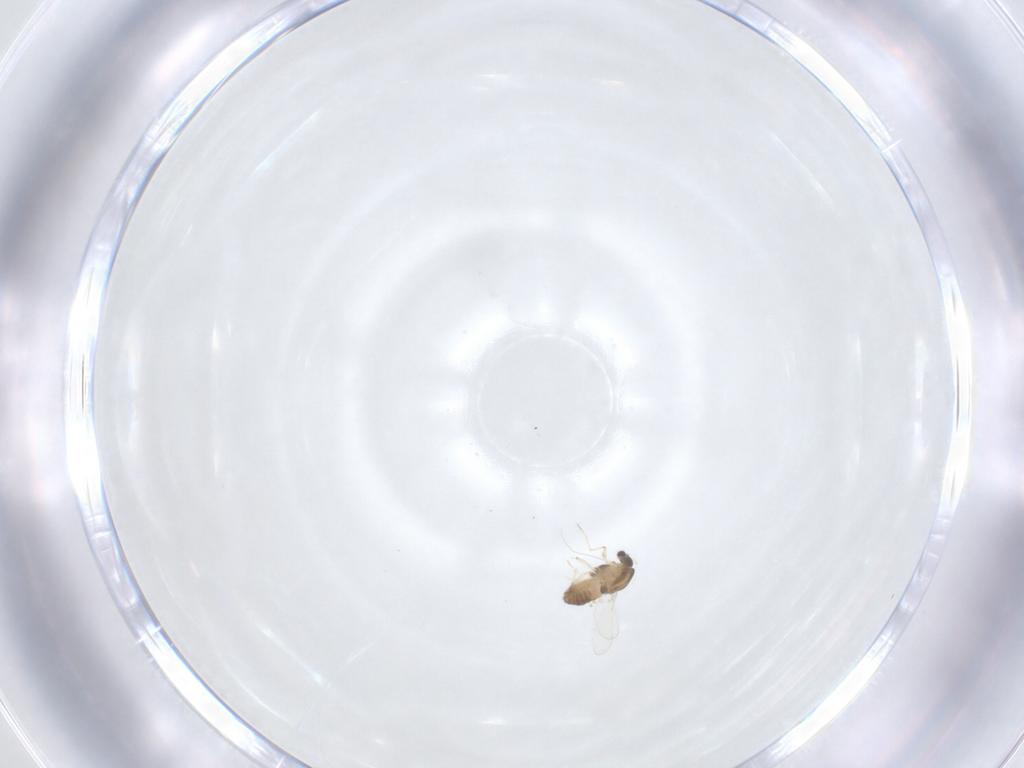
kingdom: Animalia
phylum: Arthropoda
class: Insecta
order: Diptera
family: Chironomidae
